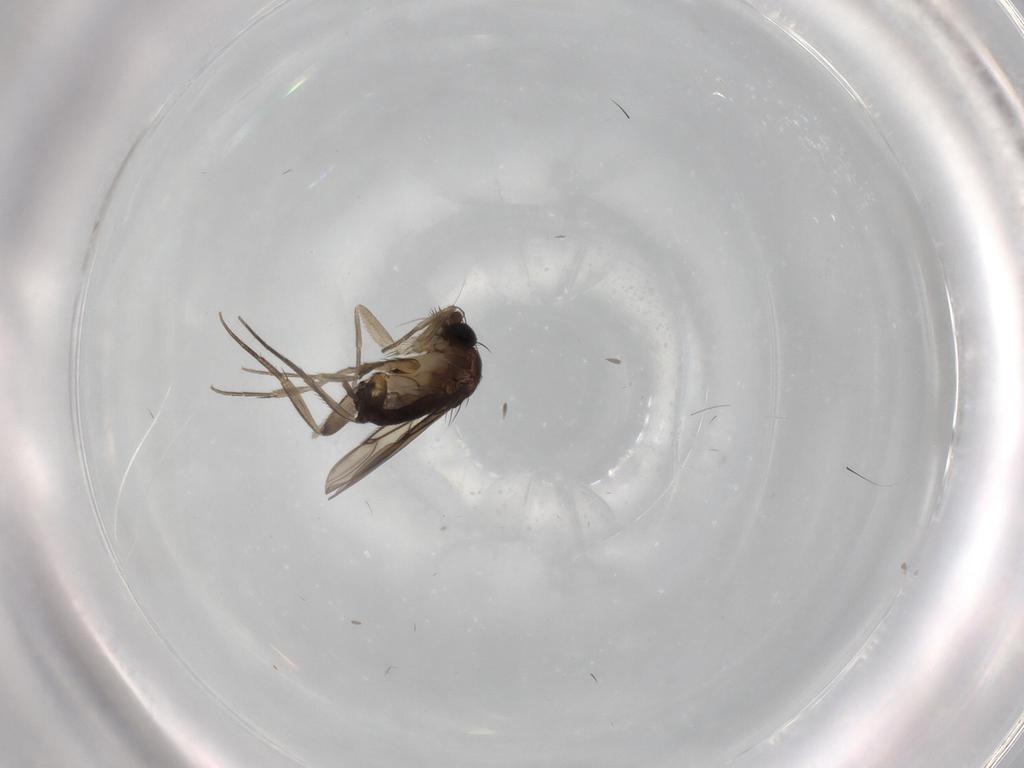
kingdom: Animalia
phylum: Arthropoda
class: Insecta
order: Diptera
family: Phoridae
